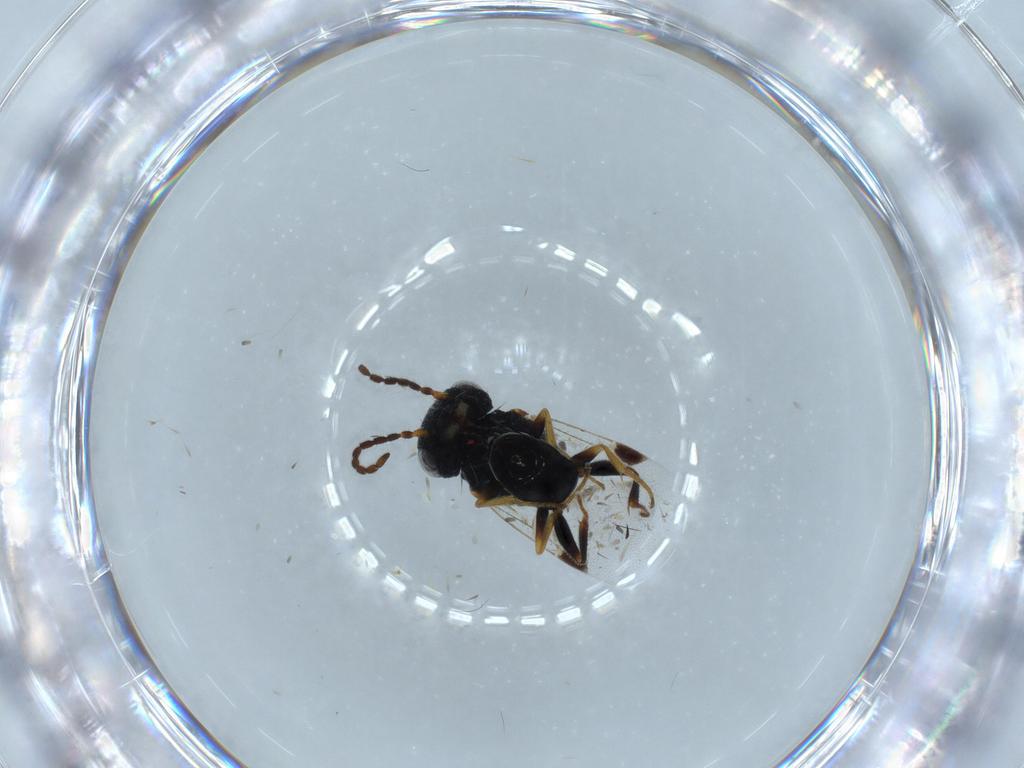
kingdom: Animalia
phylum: Arthropoda
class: Insecta
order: Hymenoptera
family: Dryinidae
